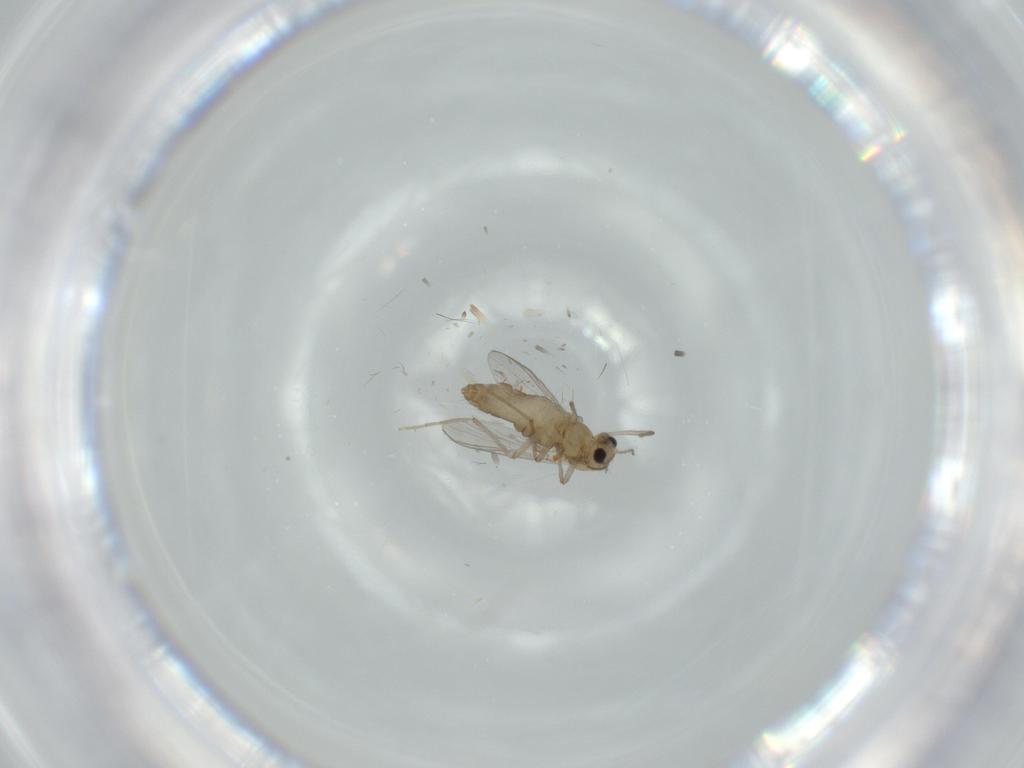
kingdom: Animalia
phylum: Arthropoda
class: Insecta
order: Diptera
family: Chironomidae
